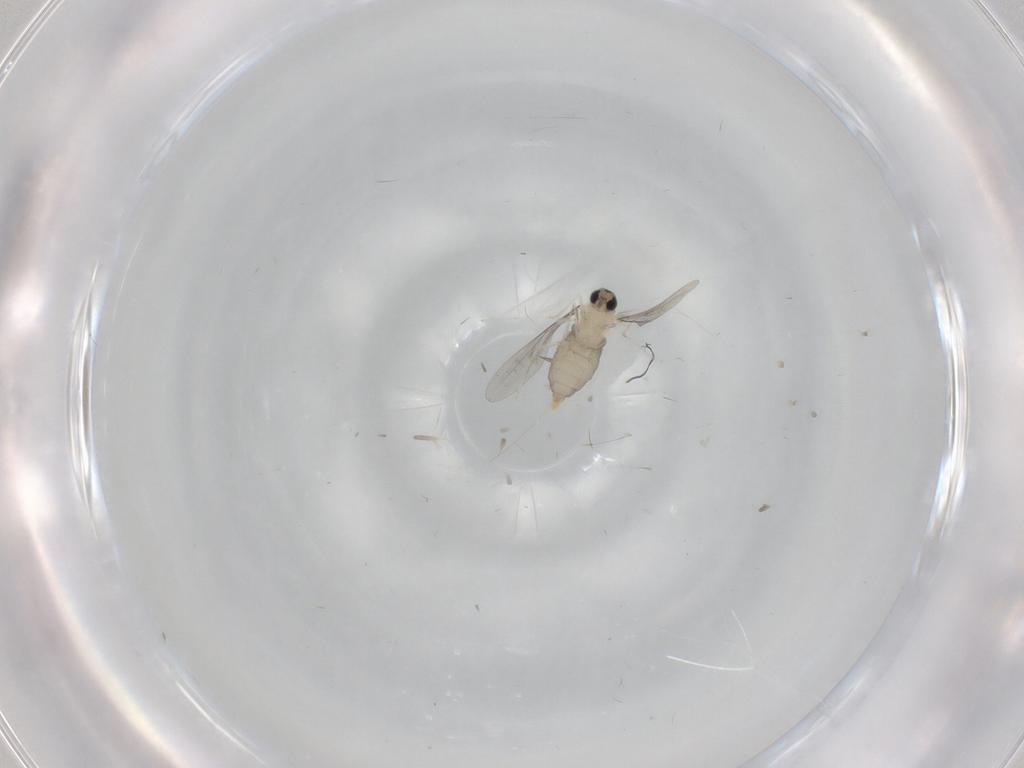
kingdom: Animalia
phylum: Arthropoda
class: Insecta
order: Diptera
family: Phoridae
